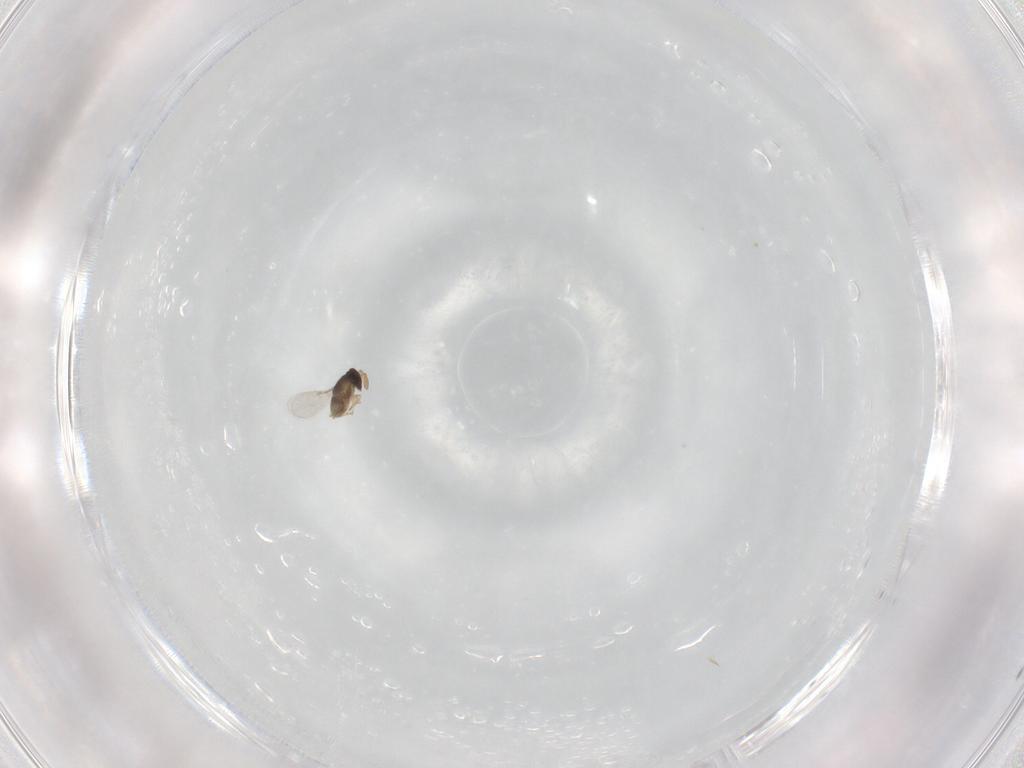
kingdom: Animalia
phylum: Arthropoda
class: Insecta
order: Hymenoptera
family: Encyrtidae
